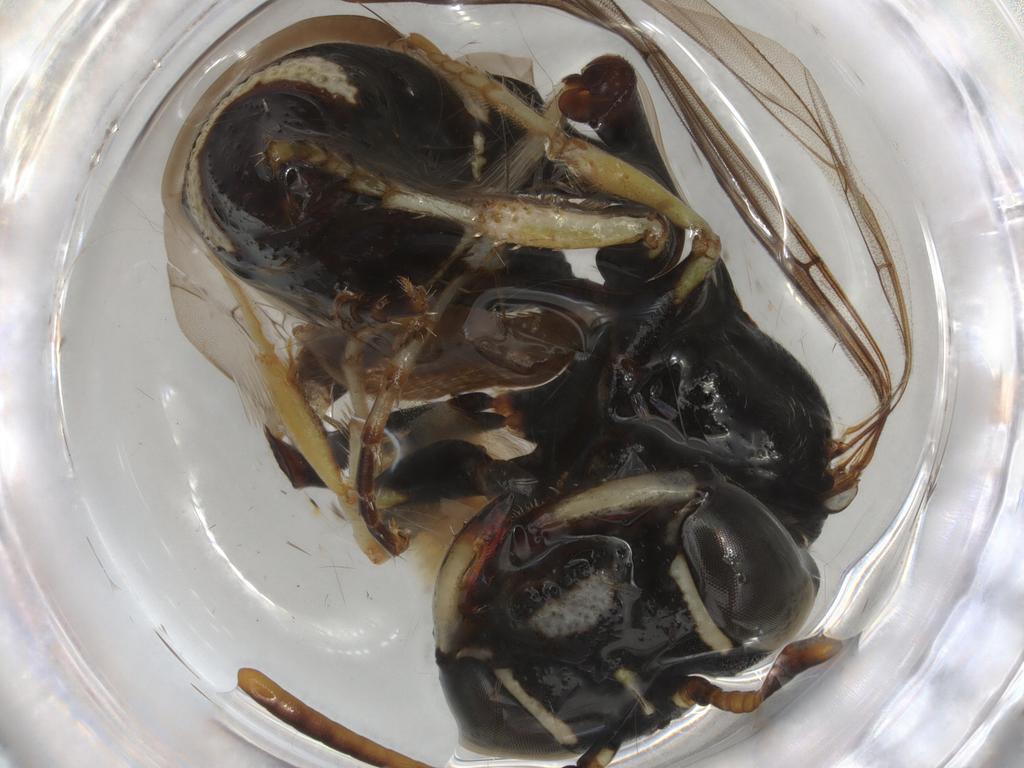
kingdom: Animalia
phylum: Arthropoda
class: Insecta
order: Hymenoptera
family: Philanthidae
